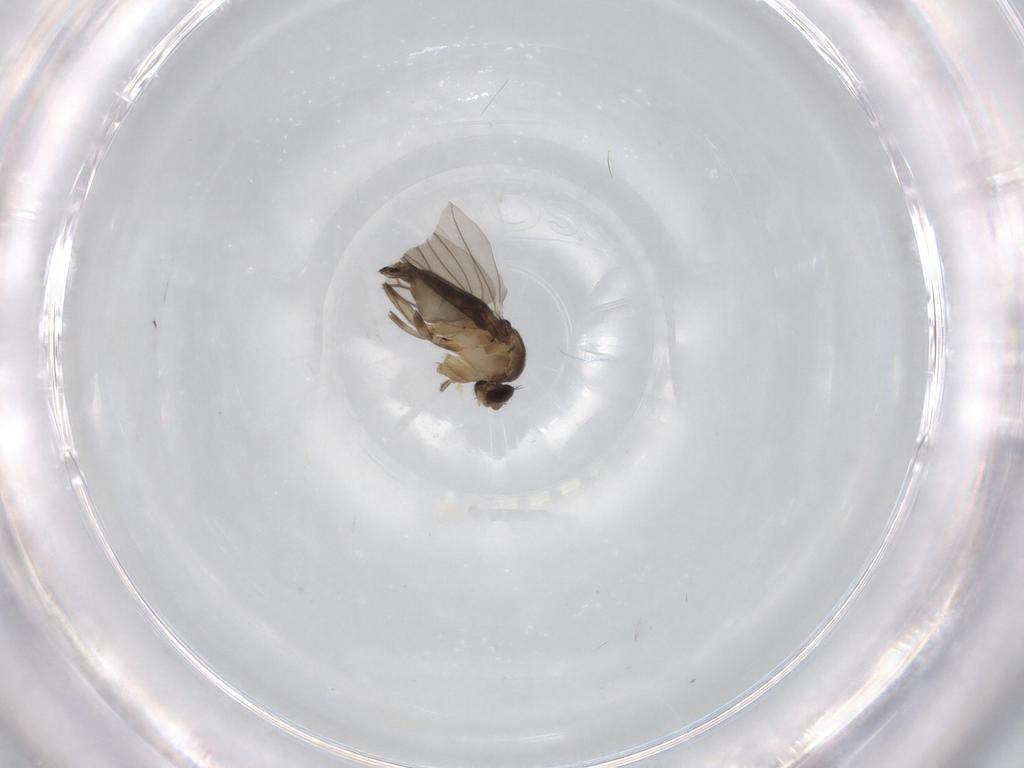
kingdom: Animalia
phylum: Arthropoda
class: Insecta
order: Diptera
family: Phoridae
